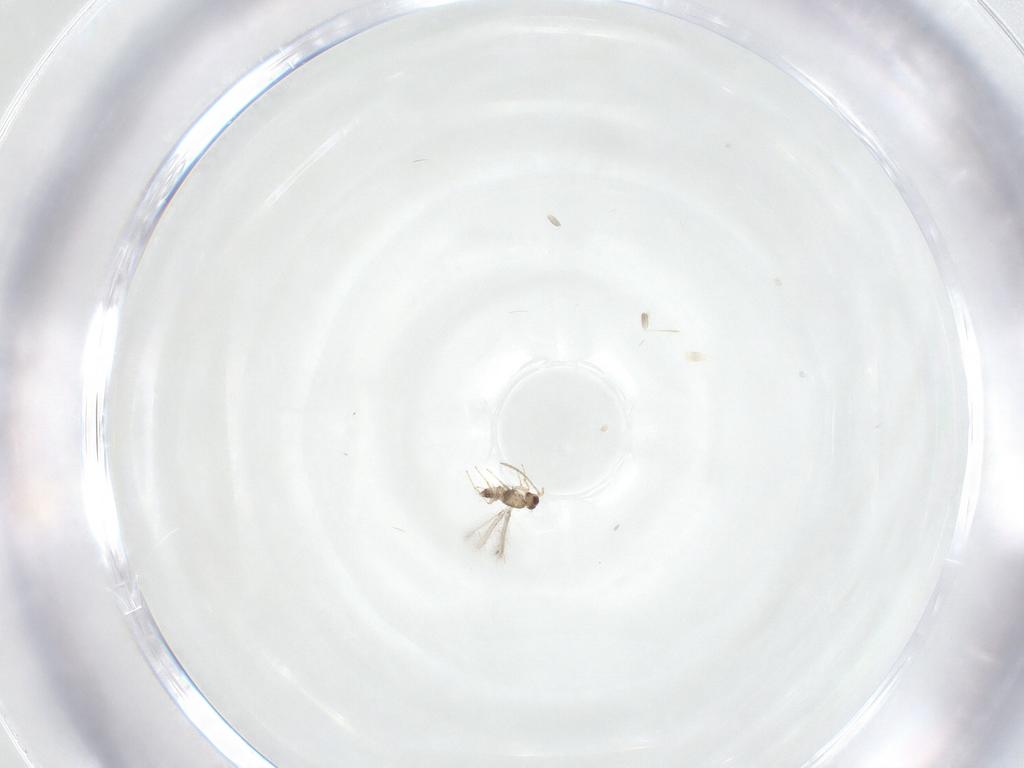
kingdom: Animalia
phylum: Arthropoda
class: Insecta
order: Hymenoptera
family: Mymaridae
